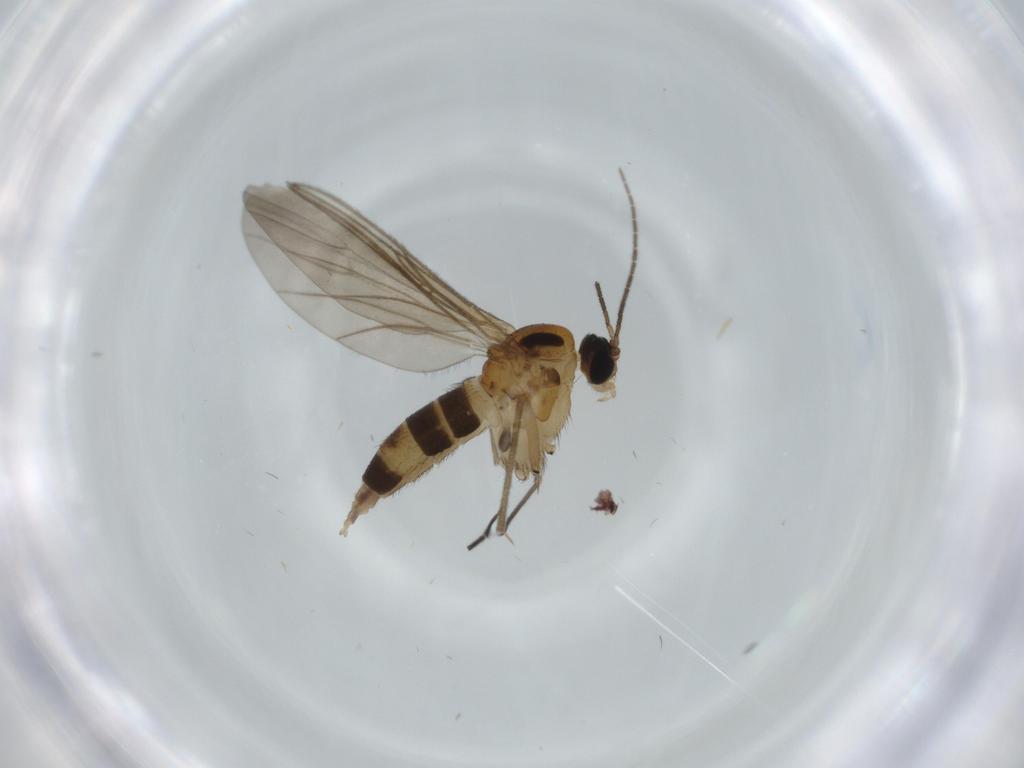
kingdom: Animalia
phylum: Arthropoda
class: Insecta
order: Diptera
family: Sciaridae
